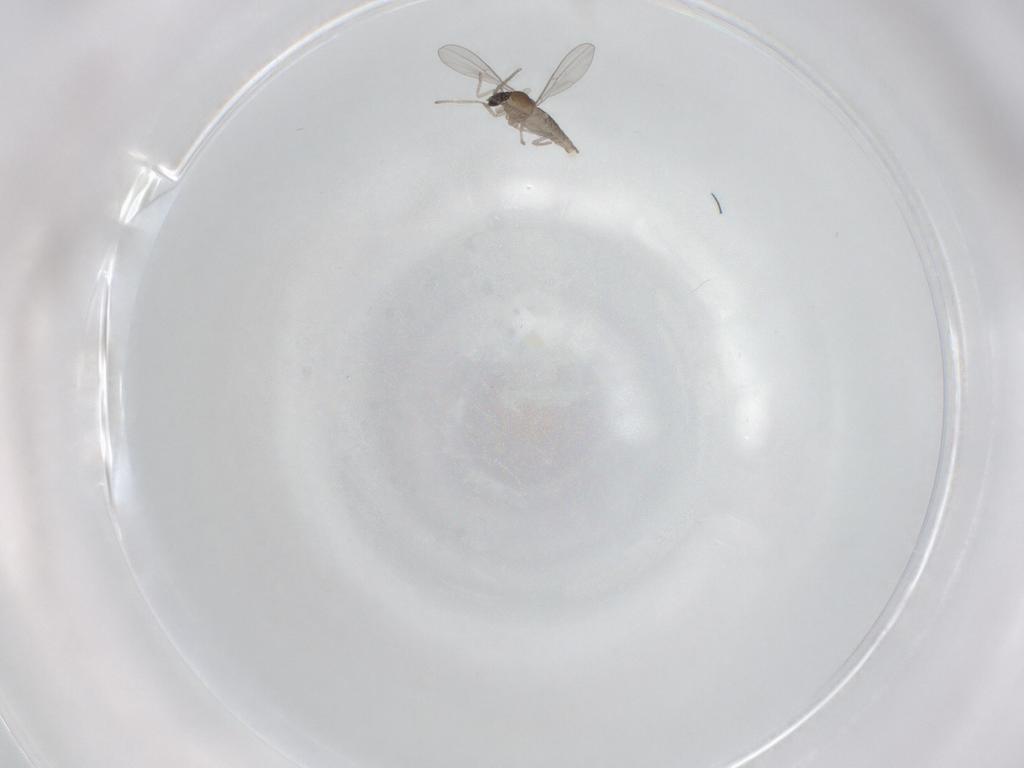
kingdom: Animalia
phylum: Arthropoda
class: Insecta
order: Diptera
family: Cecidomyiidae
